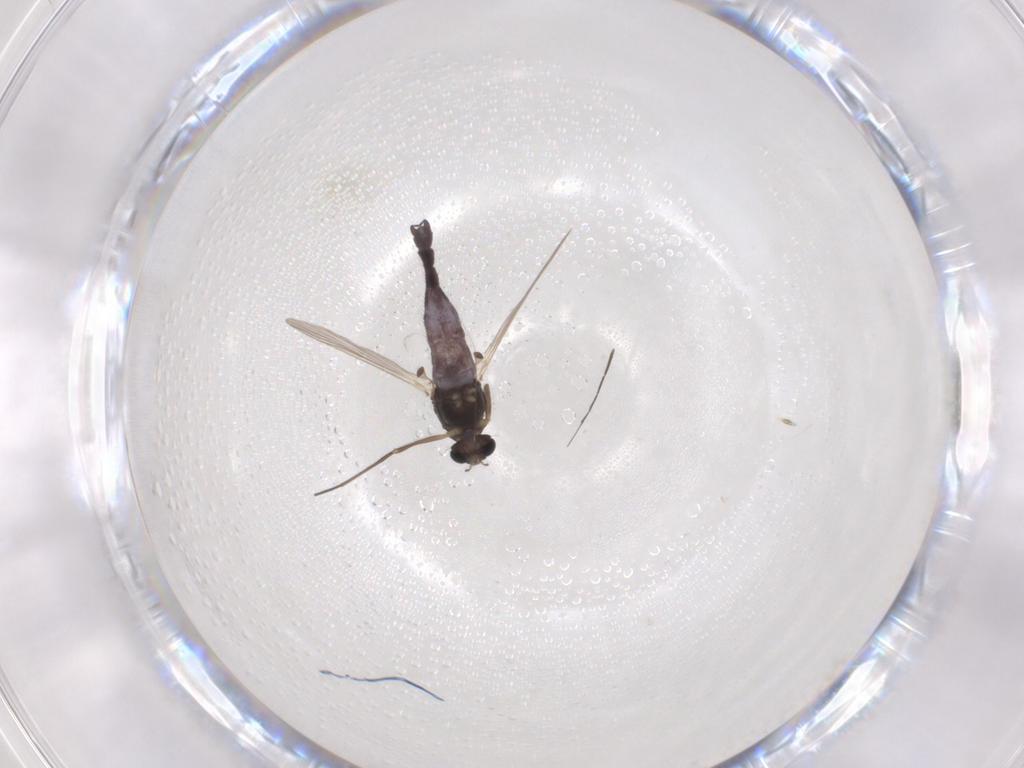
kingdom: Animalia
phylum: Arthropoda
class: Insecta
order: Diptera
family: Chironomidae
